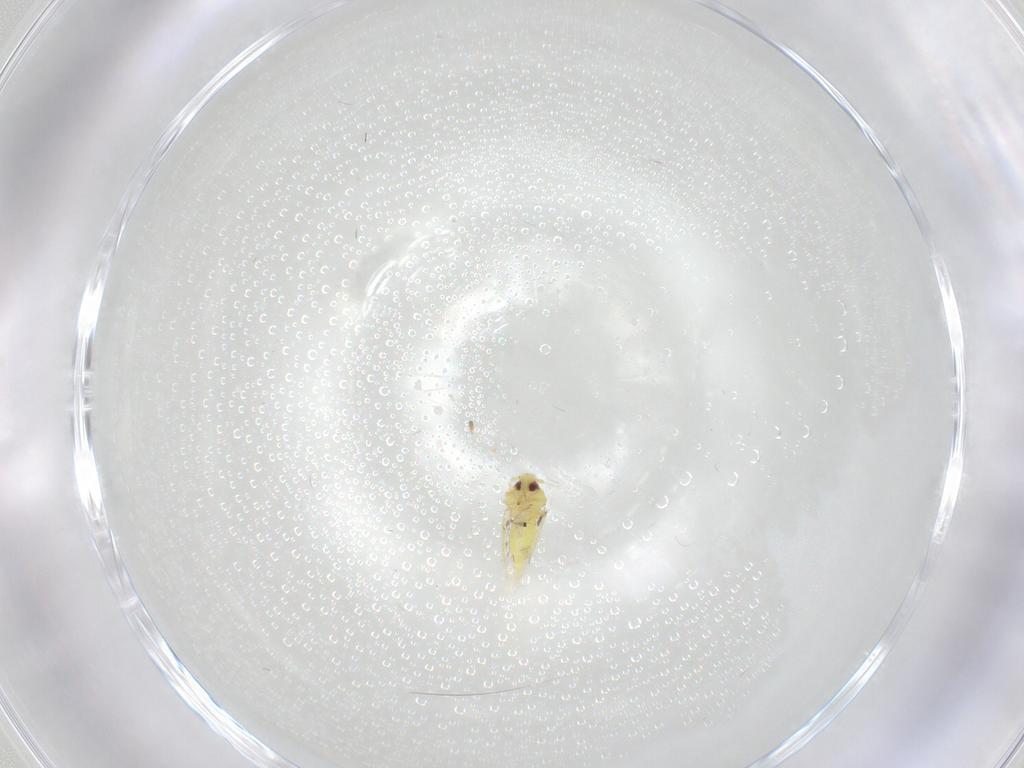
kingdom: Animalia
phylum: Arthropoda
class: Insecta
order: Hemiptera
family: Aleyrodidae
